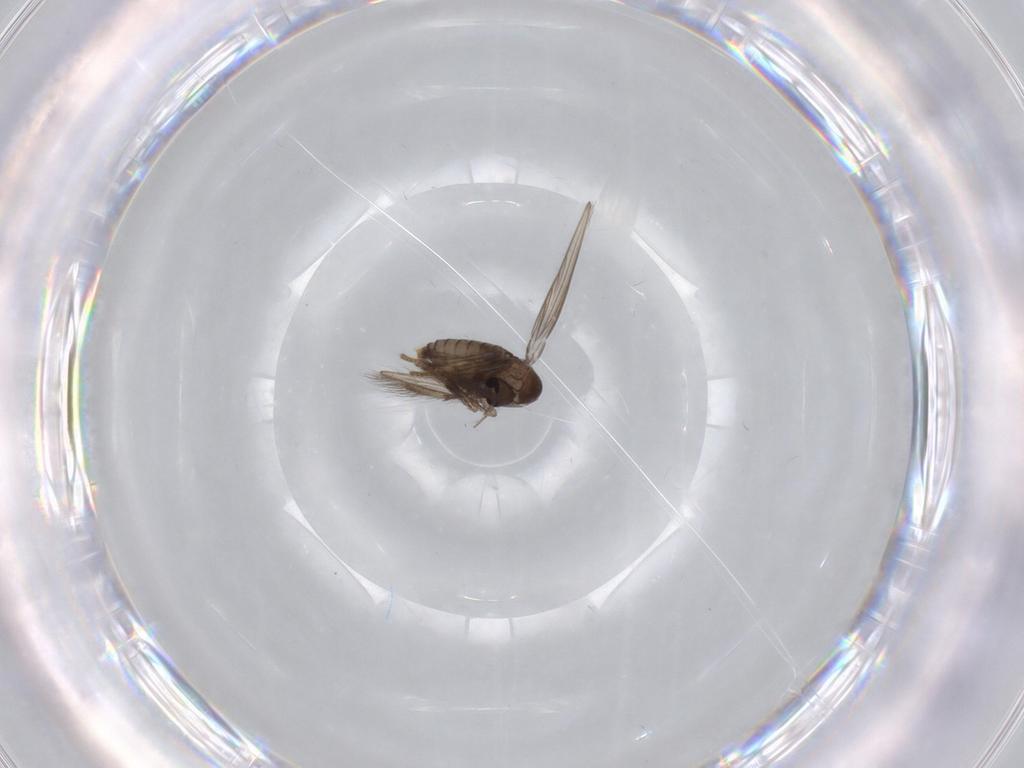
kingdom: Animalia
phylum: Arthropoda
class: Insecta
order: Diptera
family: Psychodidae
